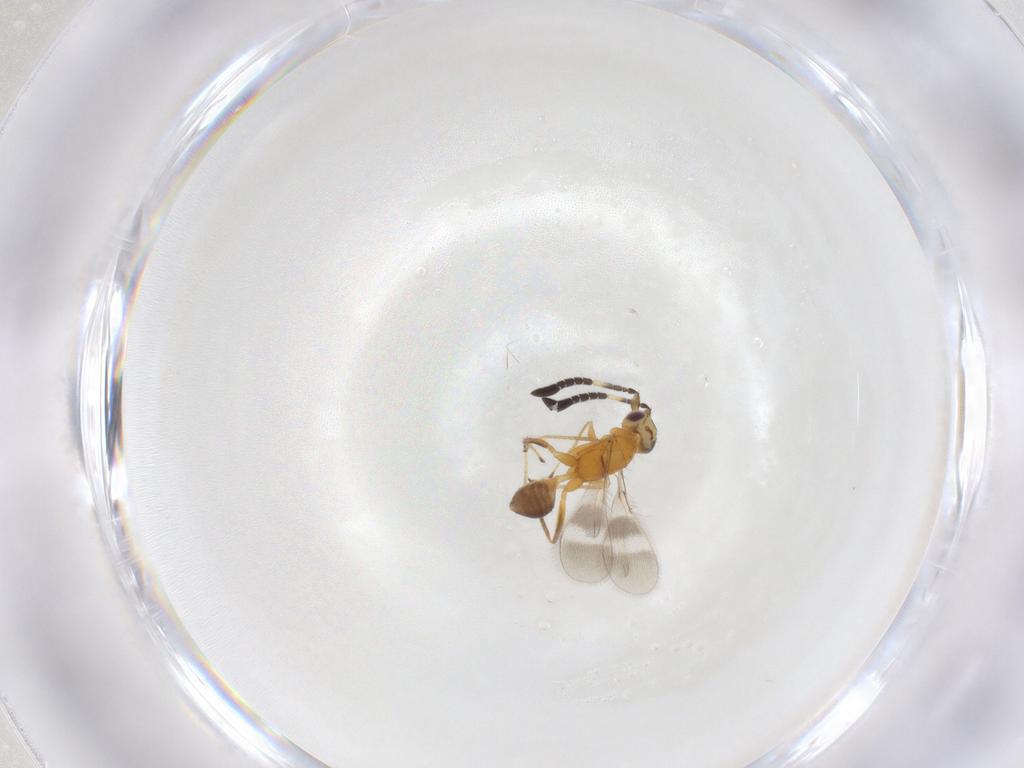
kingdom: Animalia
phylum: Arthropoda
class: Insecta
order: Hymenoptera
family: Mymaridae
